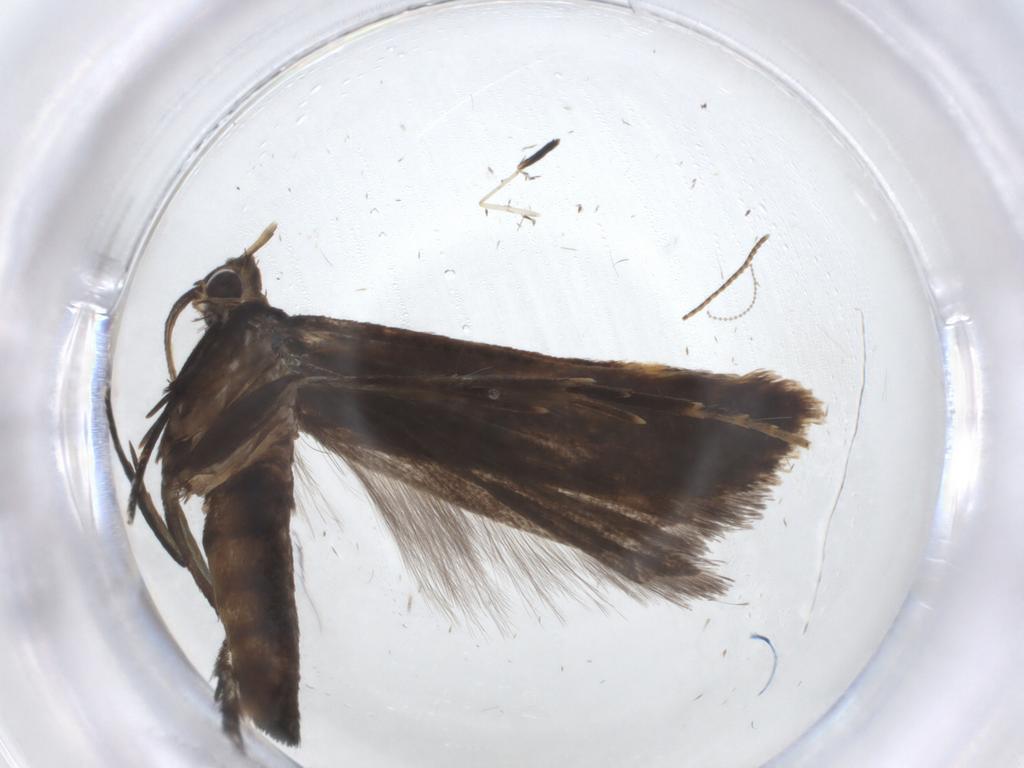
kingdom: Animalia
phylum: Arthropoda
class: Insecta
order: Lepidoptera
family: Gelechiidae
